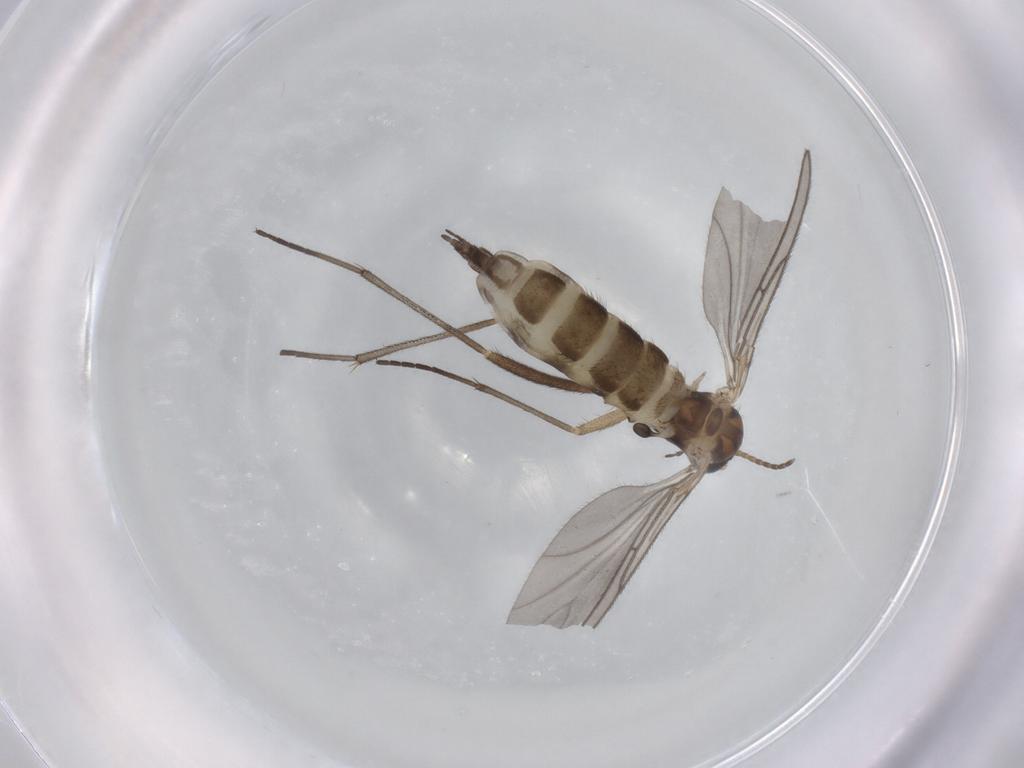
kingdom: Animalia
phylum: Arthropoda
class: Insecta
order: Diptera
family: Sciaridae
